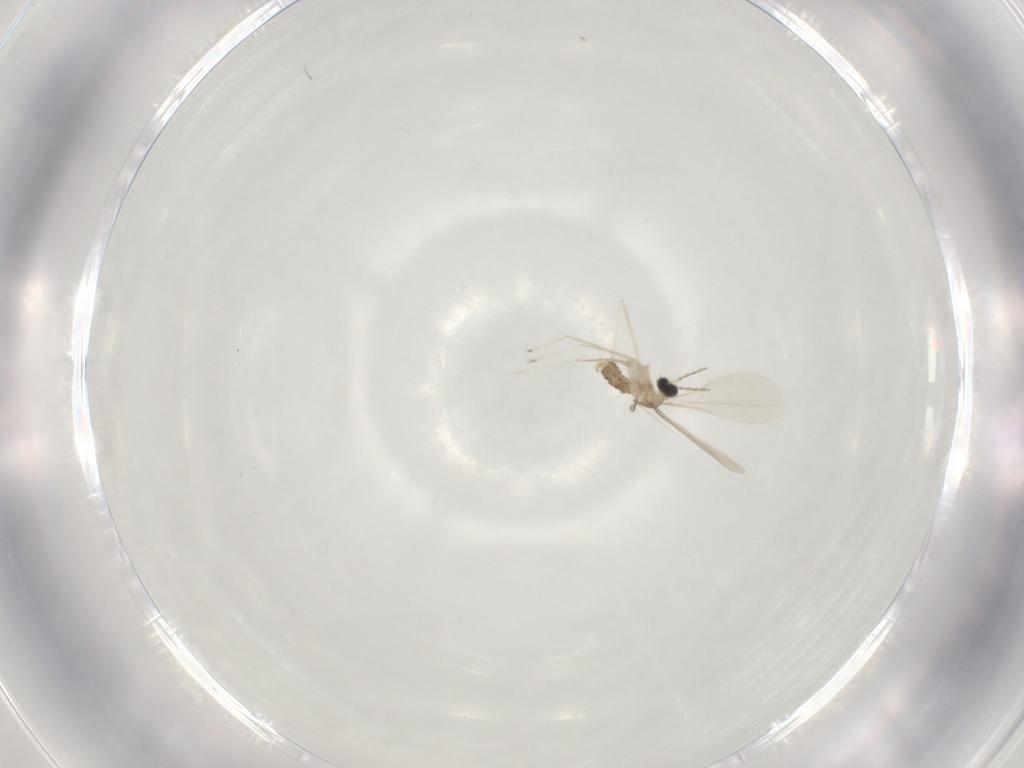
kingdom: Animalia
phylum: Arthropoda
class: Insecta
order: Diptera
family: Cecidomyiidae
